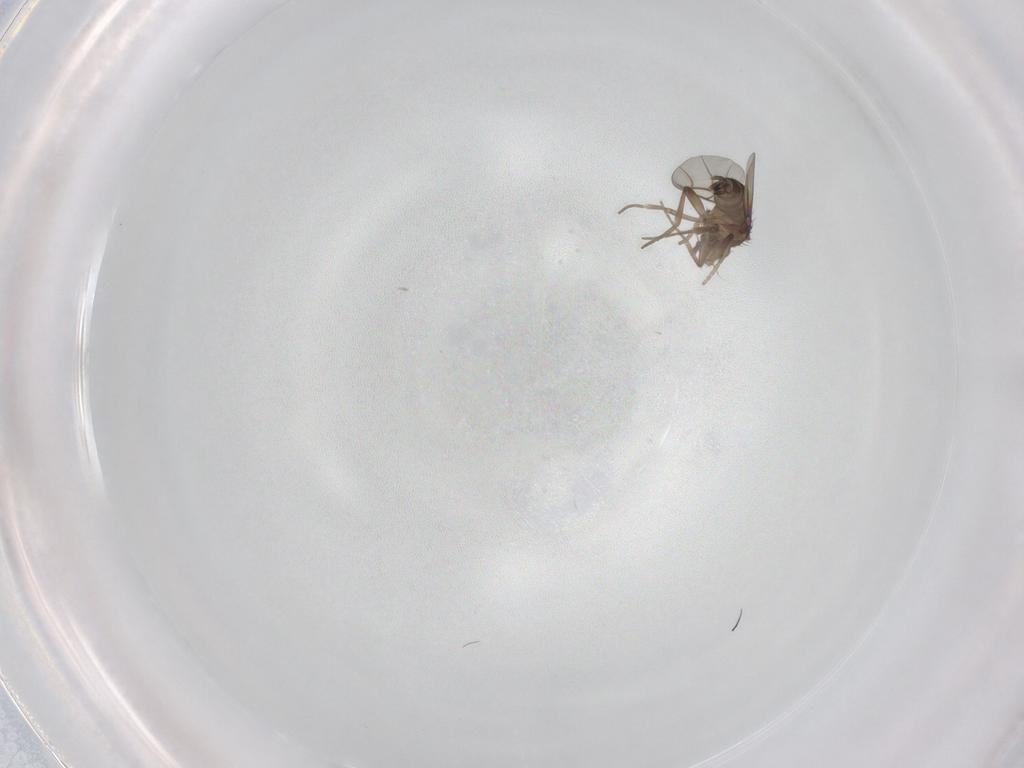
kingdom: Animalia
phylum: Arthropoda
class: Insecta
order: Diptera
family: Phoridae
